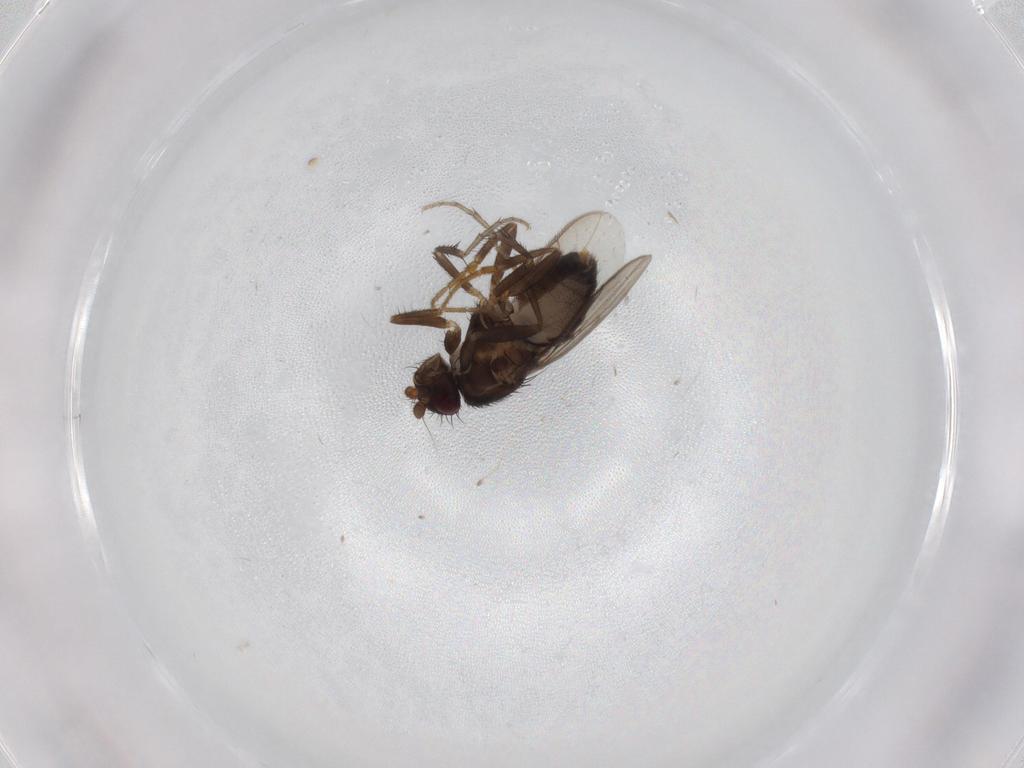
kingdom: Animalia
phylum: Arthropoda
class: Insecta
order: Diptera
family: Sphaeroceridae
